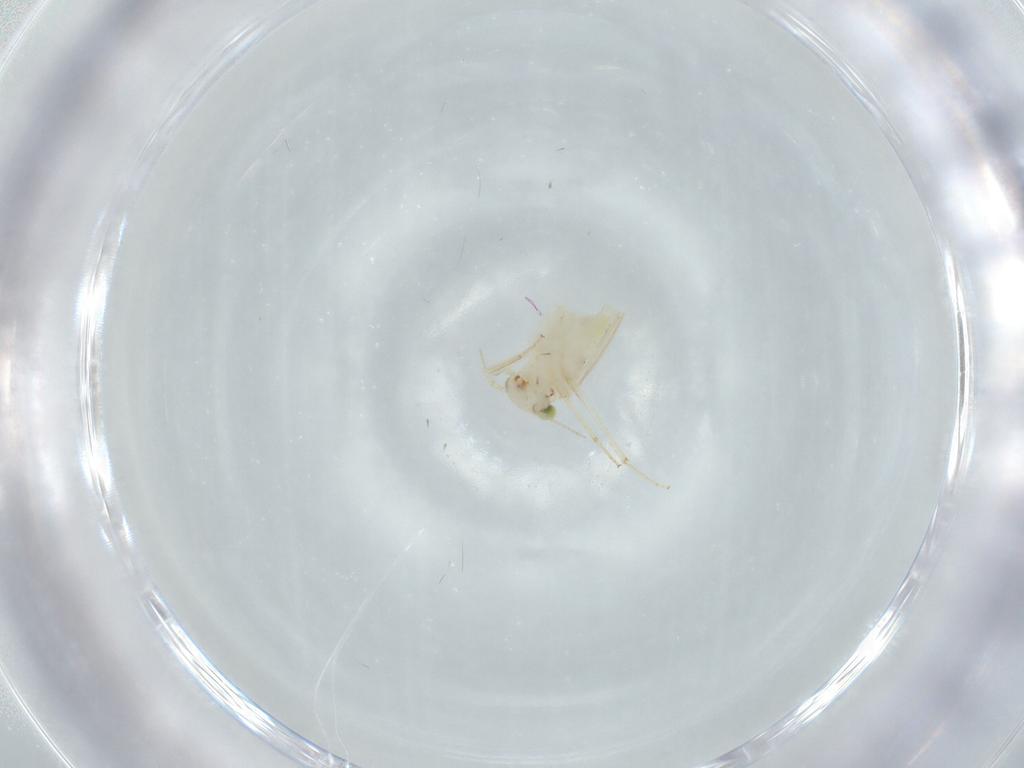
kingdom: Animalia
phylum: Arthropoda
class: Insecta
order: Psocodea
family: Lepidopsocidae
